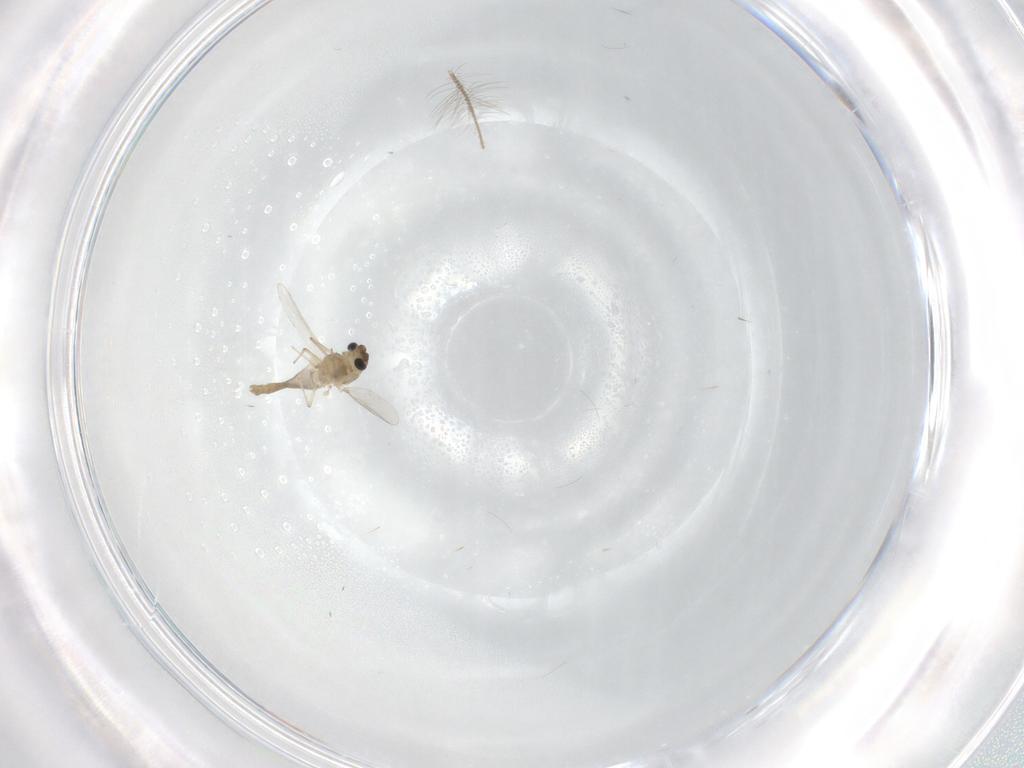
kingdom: Animalia
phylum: Arthropoda
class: Insecta
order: Diptera
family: Chironomidae
